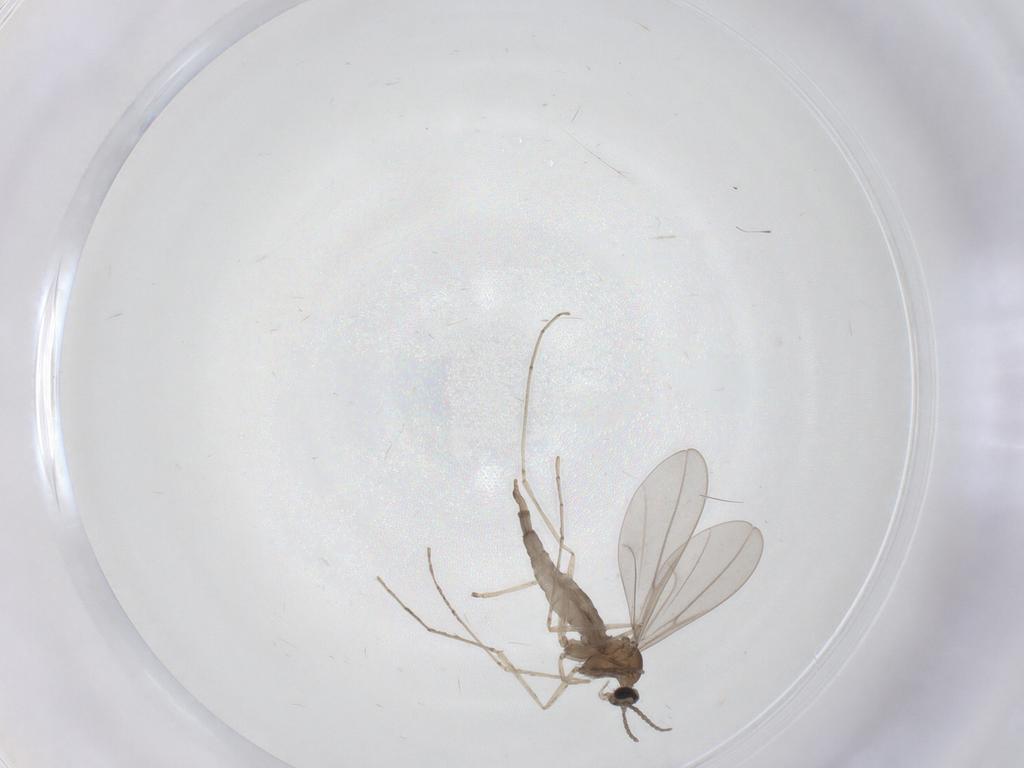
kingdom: Animalia
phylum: Arthropoda
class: Insecta
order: Diptera
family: Cecidomyiidae
